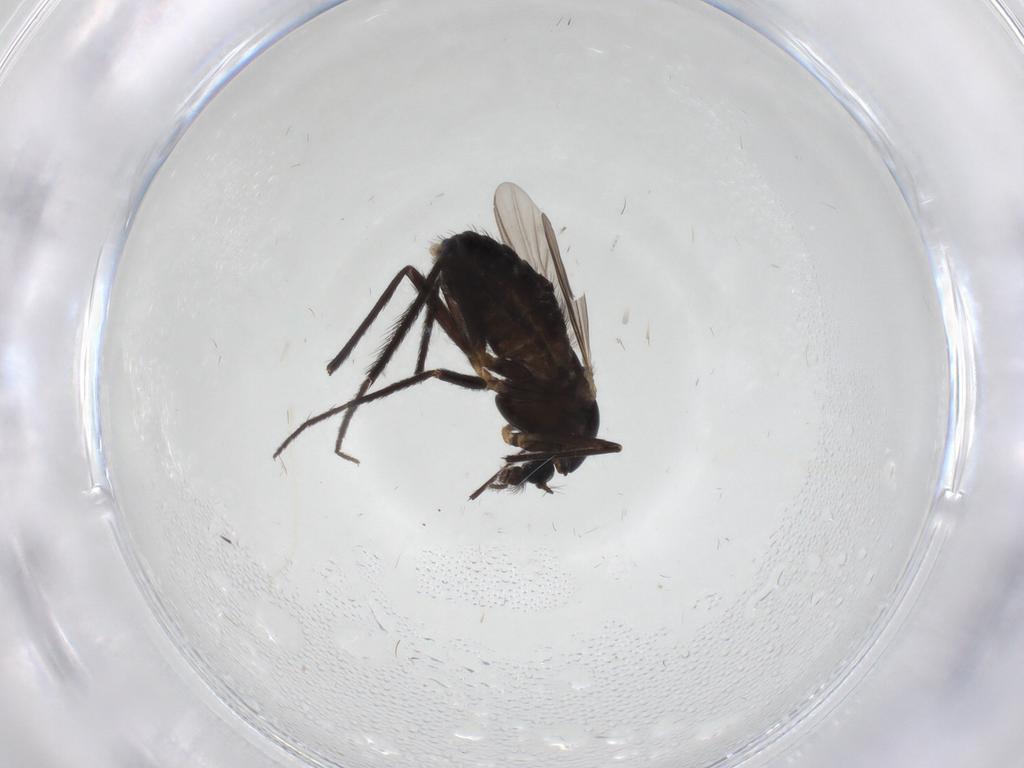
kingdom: Animalia
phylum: Arthropoda
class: Insecta
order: Diptera
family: Chironomidae
